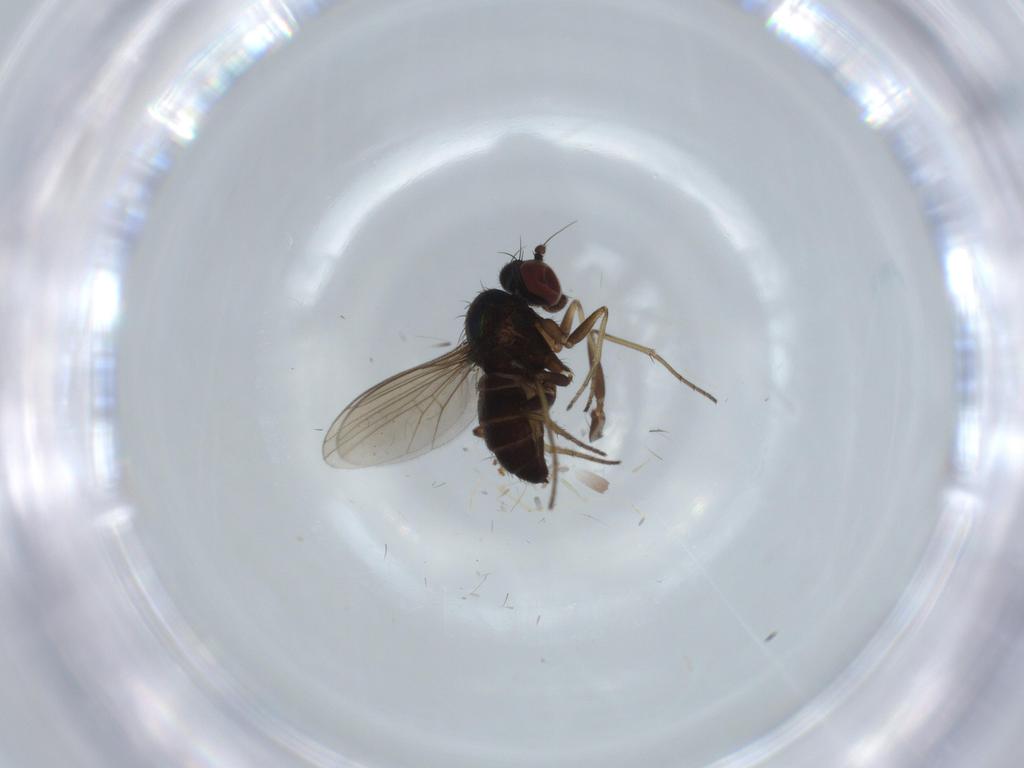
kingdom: Animalia
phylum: Arthropoda
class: Insecta
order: Diptera
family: Dolichopodidae
